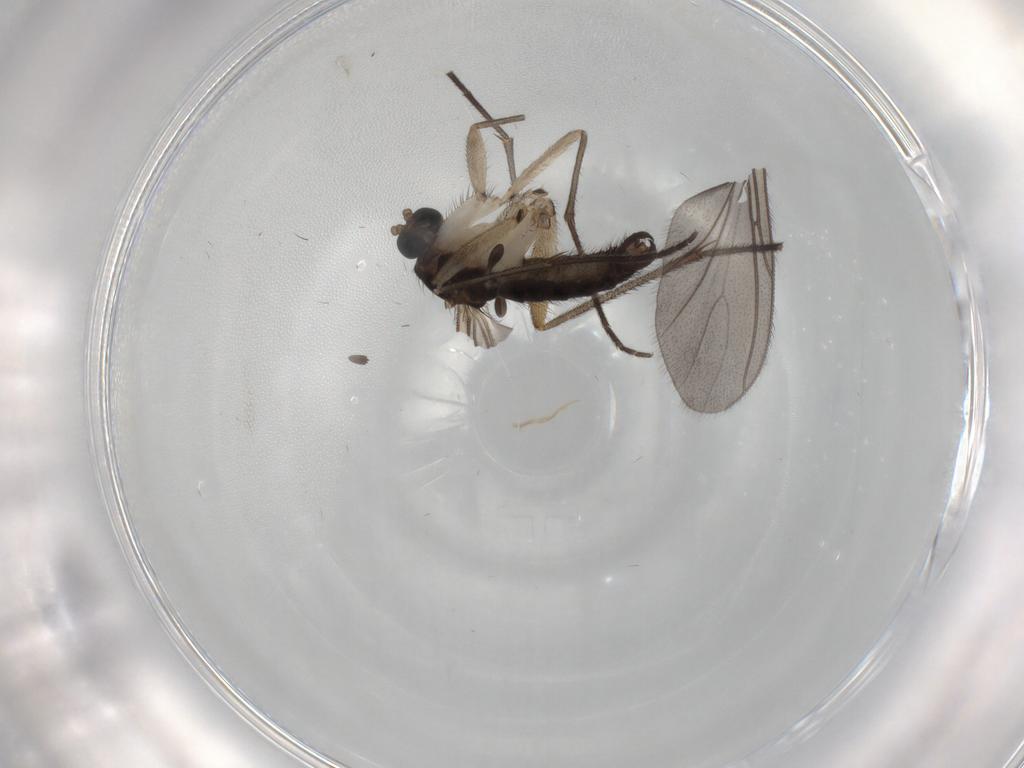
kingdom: Animalia
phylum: Arthropoda
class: Insecta
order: Diptera
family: Sciaridae
